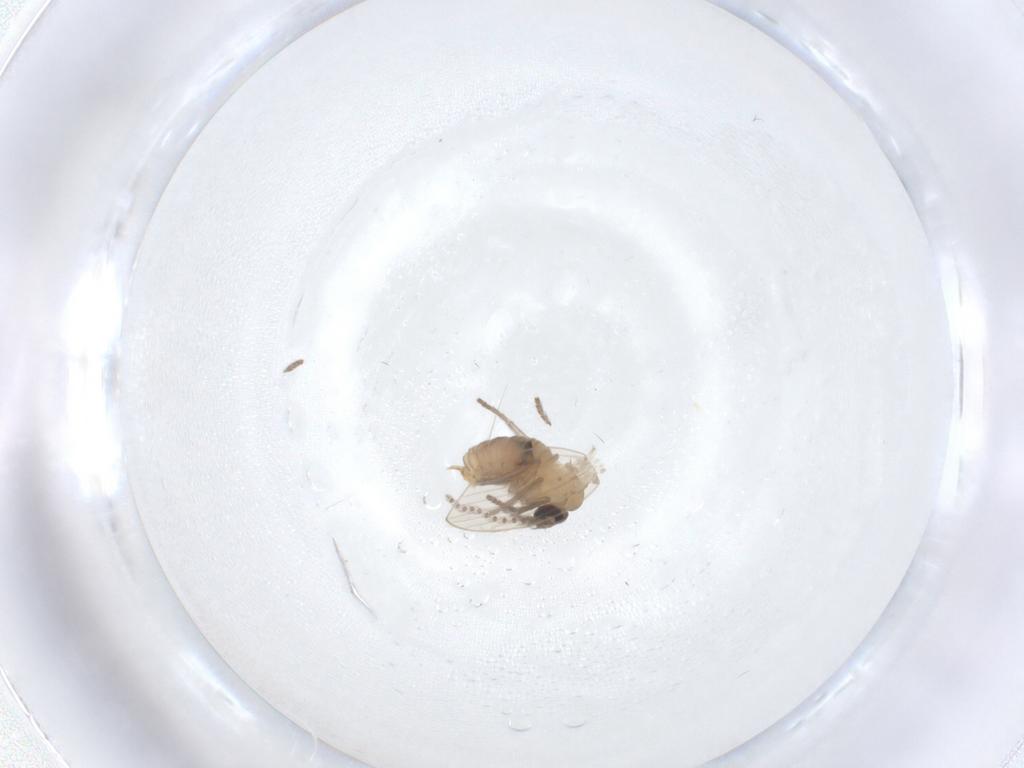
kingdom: Animalia
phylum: Arthropoda
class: Insecta
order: Diptera
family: Psychodidae
